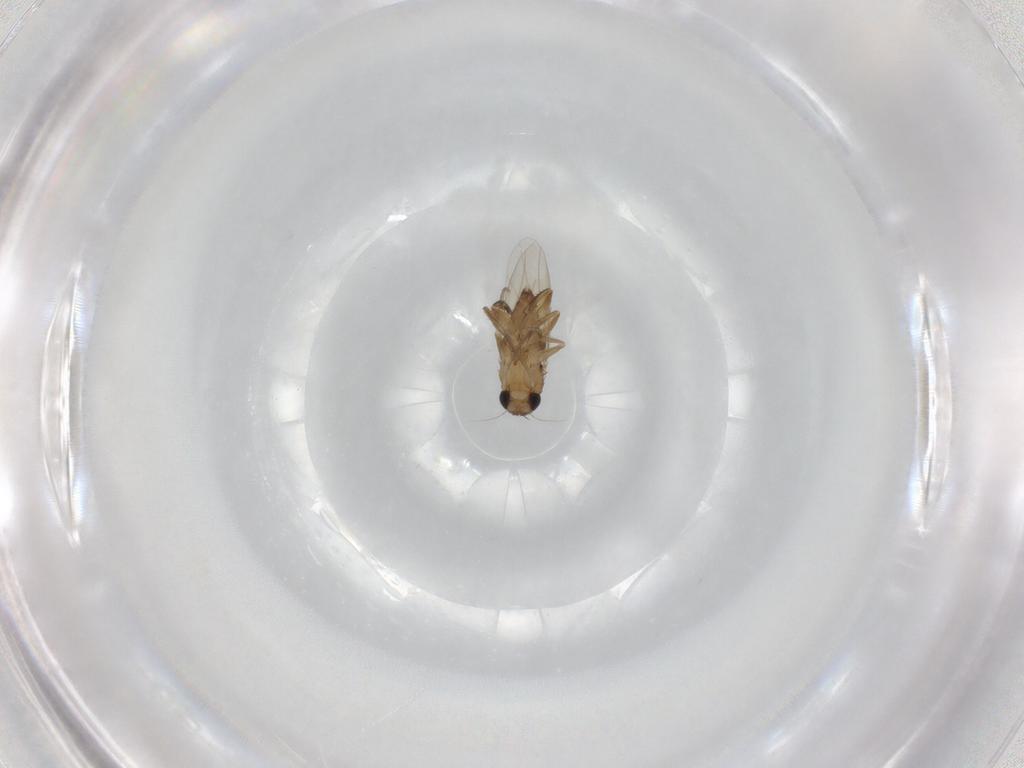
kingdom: Animalia
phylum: Arthropoda
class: Insecta
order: Diptera
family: Phoridae
